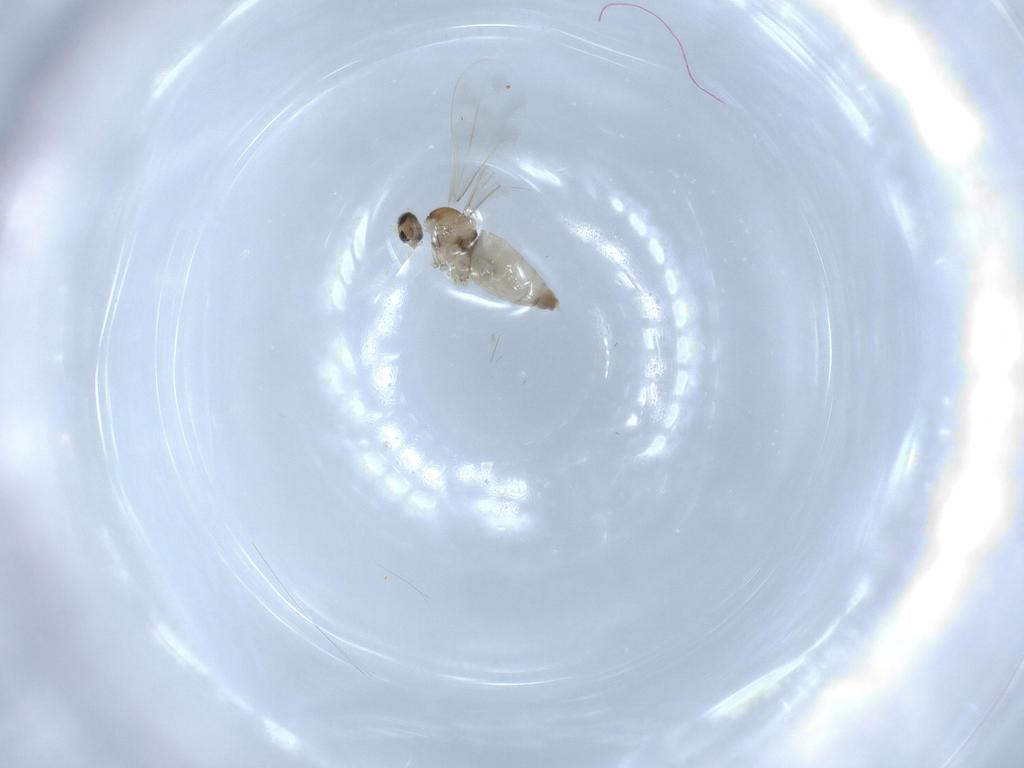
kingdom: Animalia
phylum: Arthropoda
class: Insecta
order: Diptera
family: Cecidomyiidae
